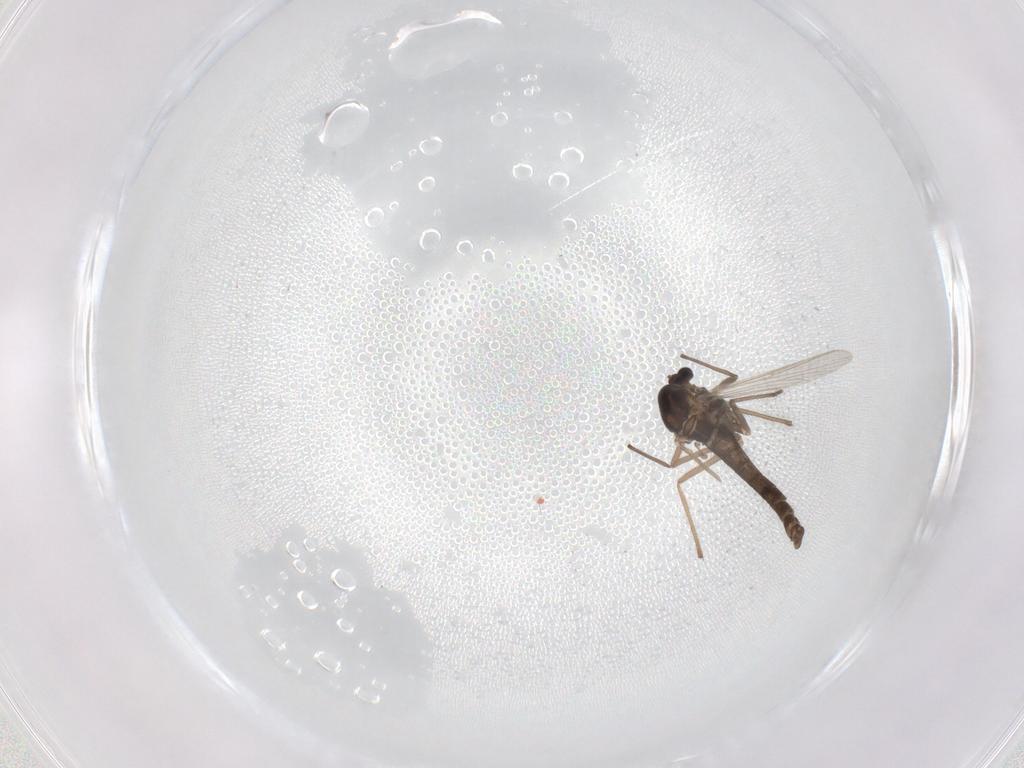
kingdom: Animalia
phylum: Arthropoda
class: Insecta
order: Diptera
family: Chironomidae
